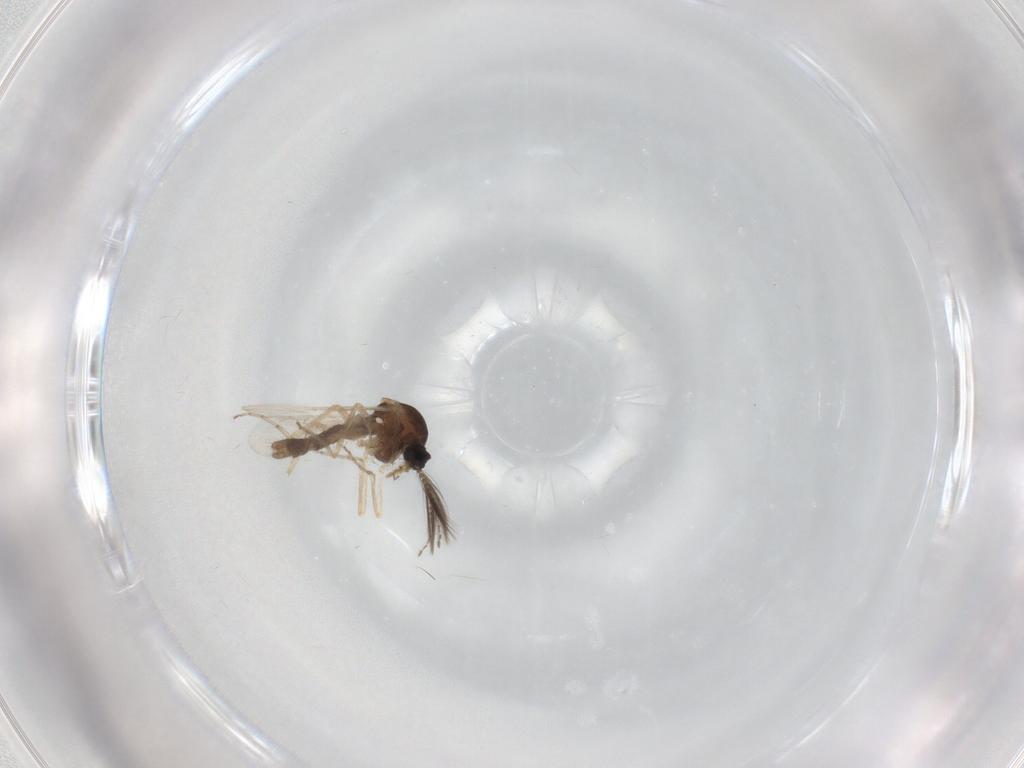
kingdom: Animalia
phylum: Arthropoda
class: Insecta
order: Diptera
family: Ceratopogonidae
